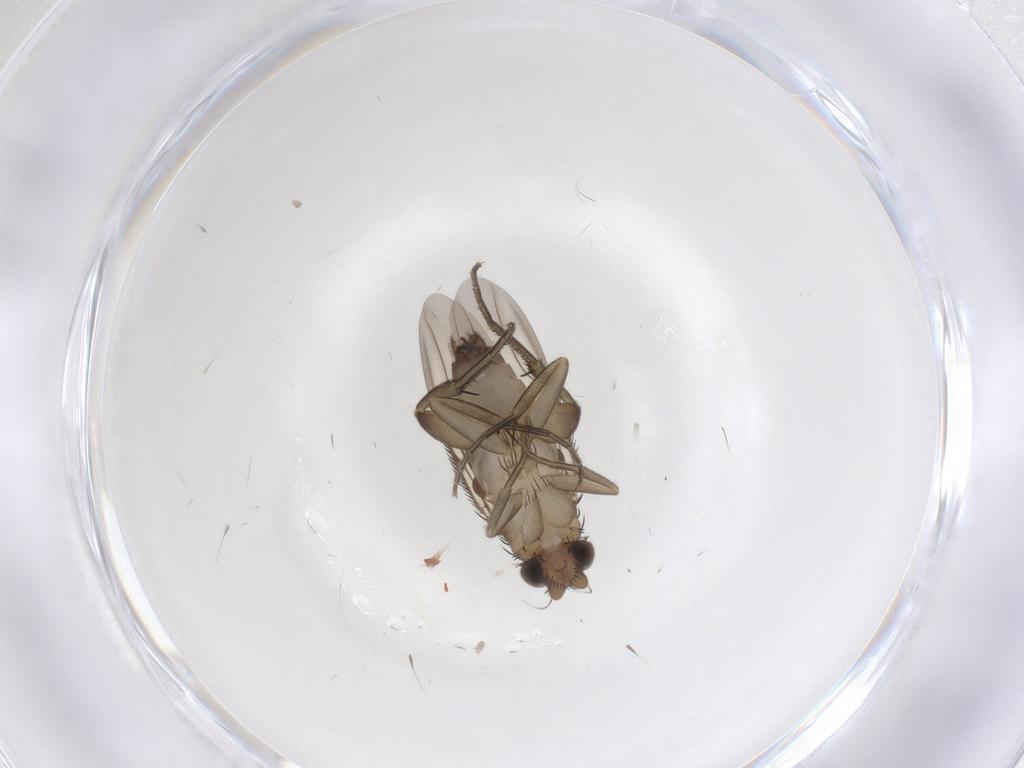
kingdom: Animalia
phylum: Arthropoda
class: Insecta
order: Diptera
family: Phoridae
